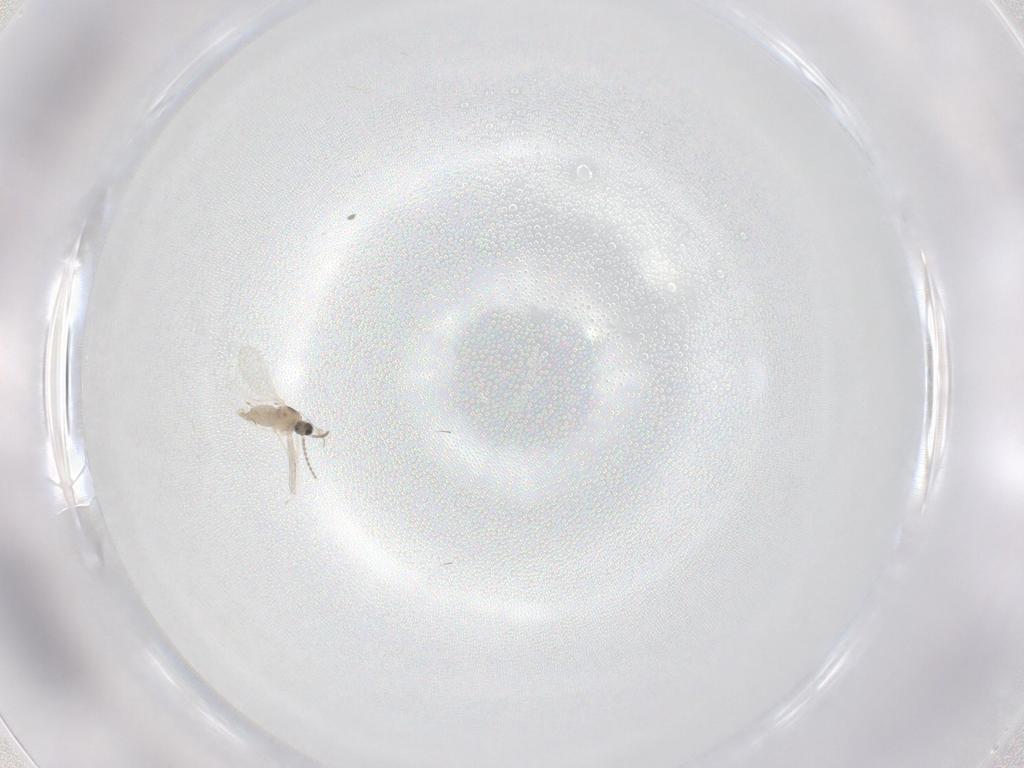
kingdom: Animalia
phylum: Arthropoda
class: Insecta
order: Diptera
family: Cecidomyiidae
